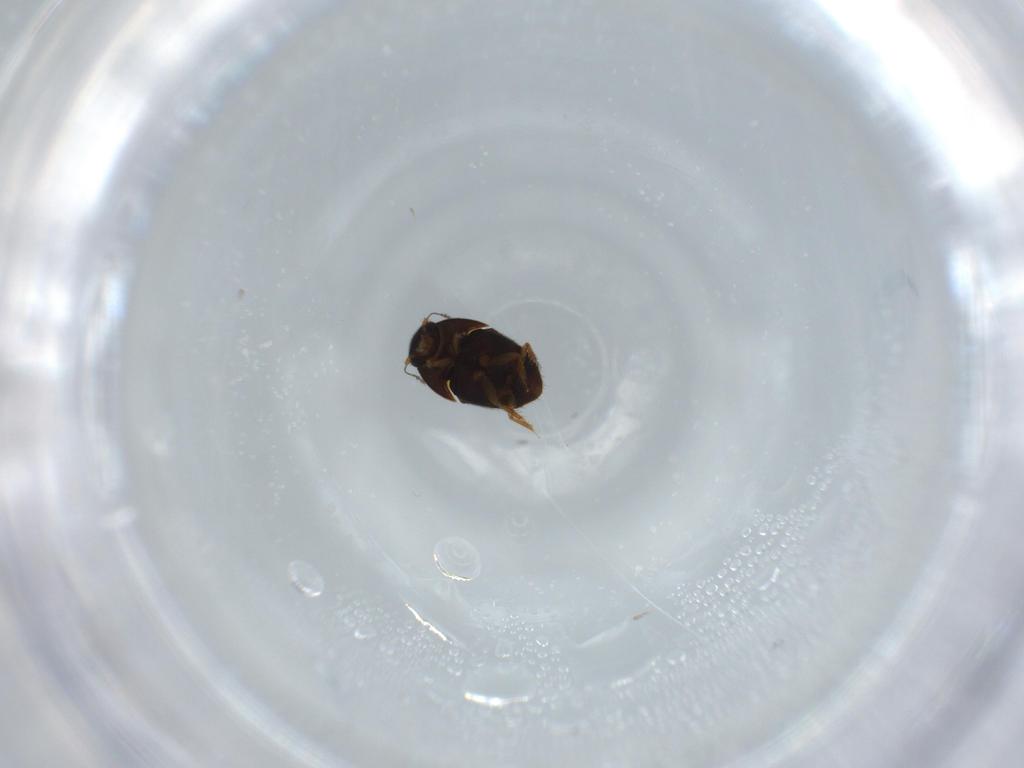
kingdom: Animalia
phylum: Arthropoda
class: Insecta
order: Coleoptera
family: Ptiliidae
